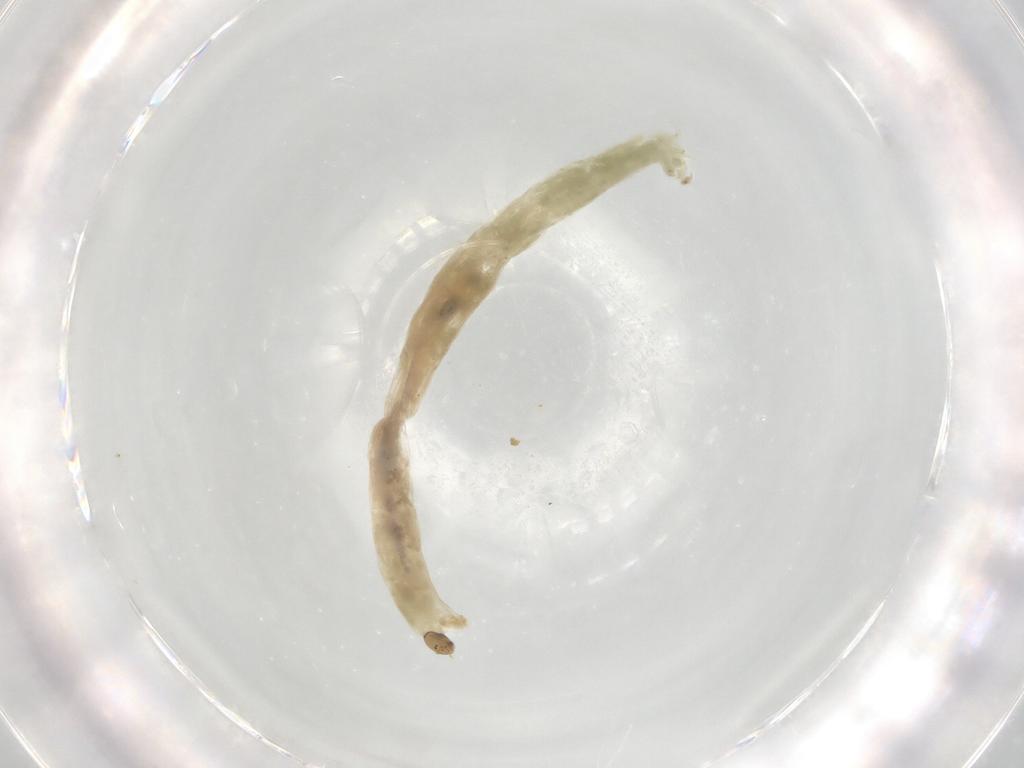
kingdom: Animalia
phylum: Arthropoda
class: Insecta
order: Diptera
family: Chironomidae
